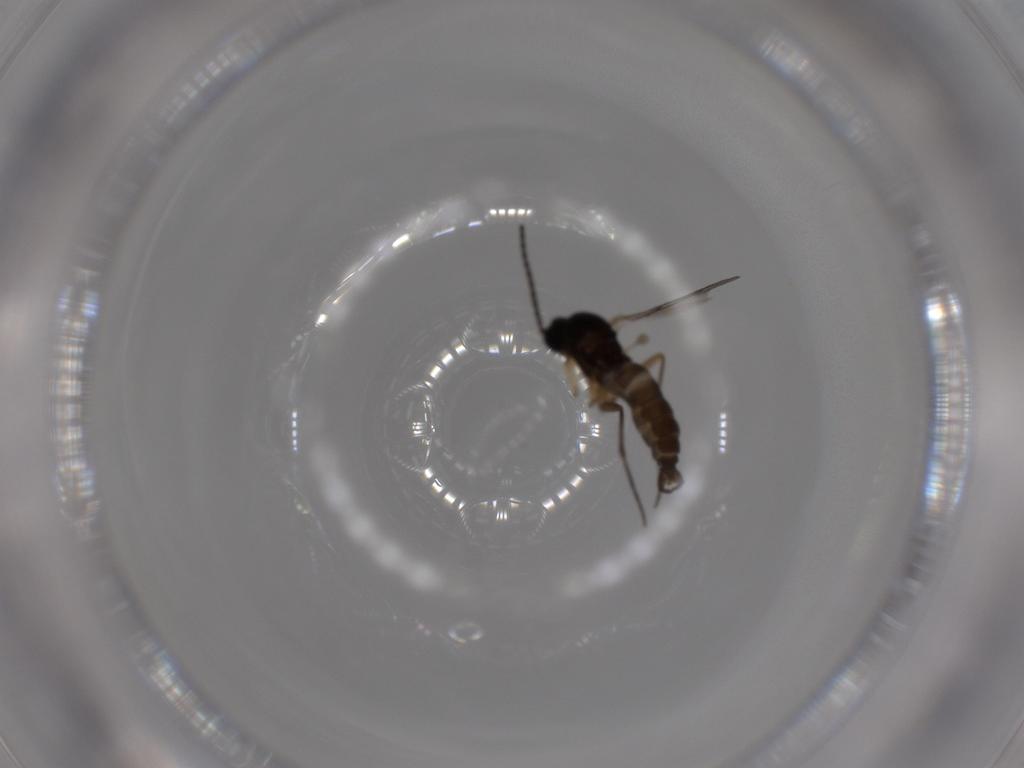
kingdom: Animalia
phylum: Arthropoda
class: Insecta
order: Diptera
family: Sciaridae
